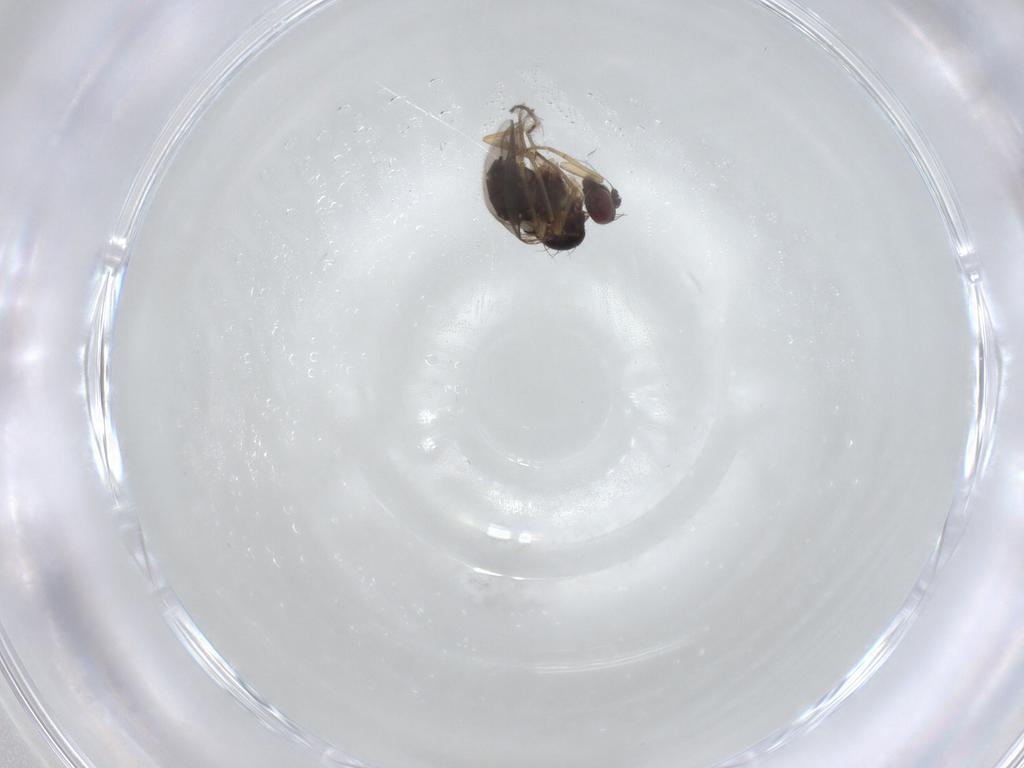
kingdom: Animalia
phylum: Arthropoda
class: Insecta
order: Diptera
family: Dolichopodidae
